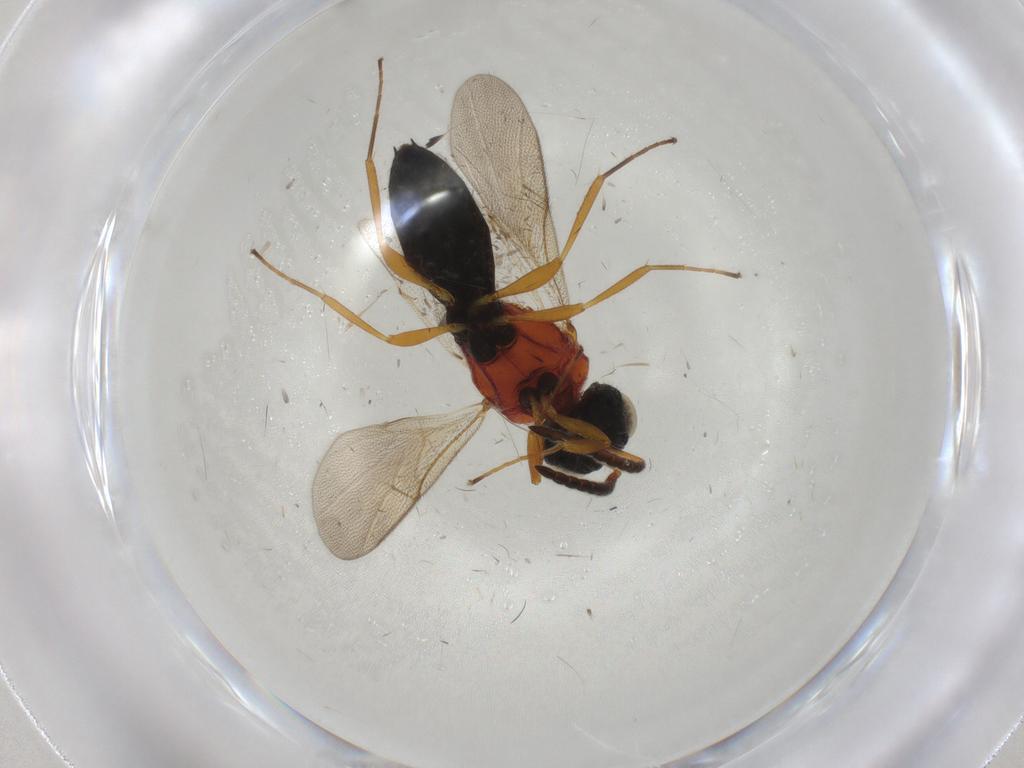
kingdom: Animalia
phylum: Arthropoda
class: Insecta
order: Hymenoptera
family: Scelionidae
